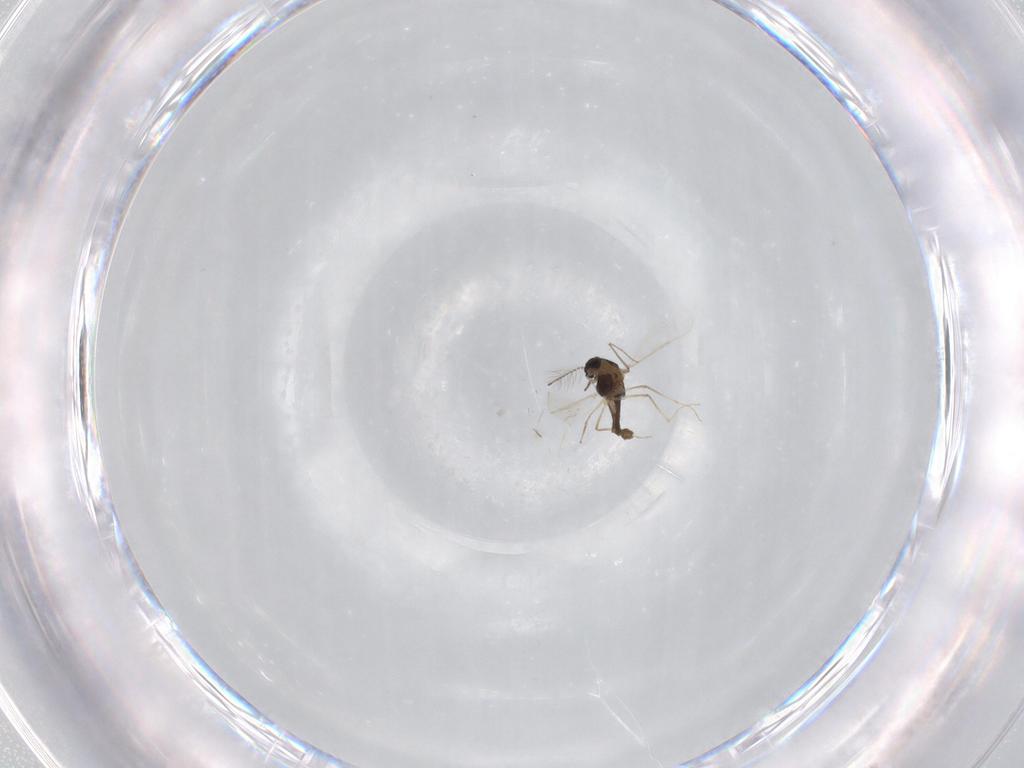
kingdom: Animalia
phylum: Arthropoda
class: Insecta
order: Diptera
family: Chironomidae
